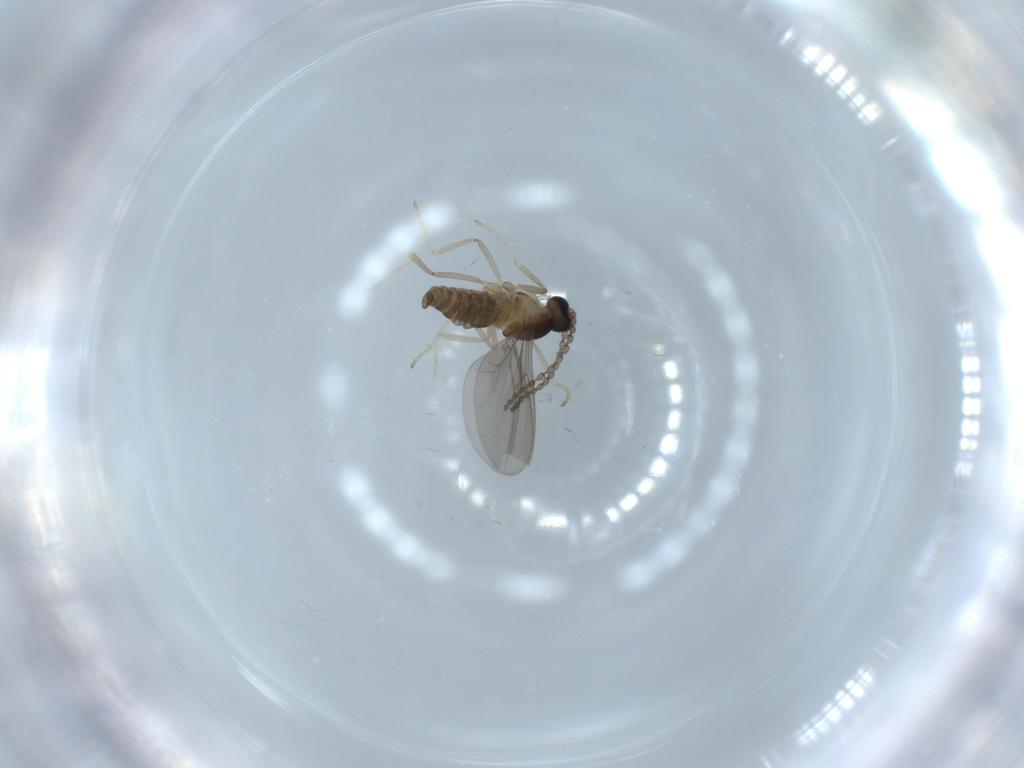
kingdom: Animalia
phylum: Arthropoda
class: Insecta
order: Diptera
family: Cecidomyiidae
